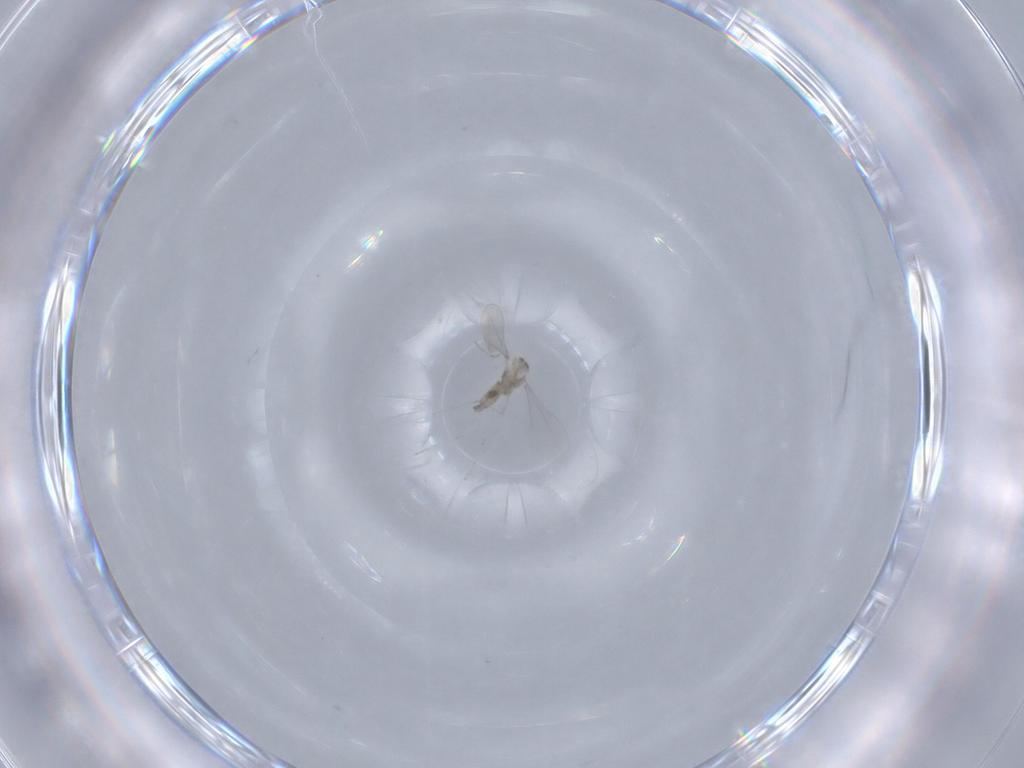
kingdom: Animalia
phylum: Arthropoda
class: Insecta
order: Diptera
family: Cecidomyiidae
